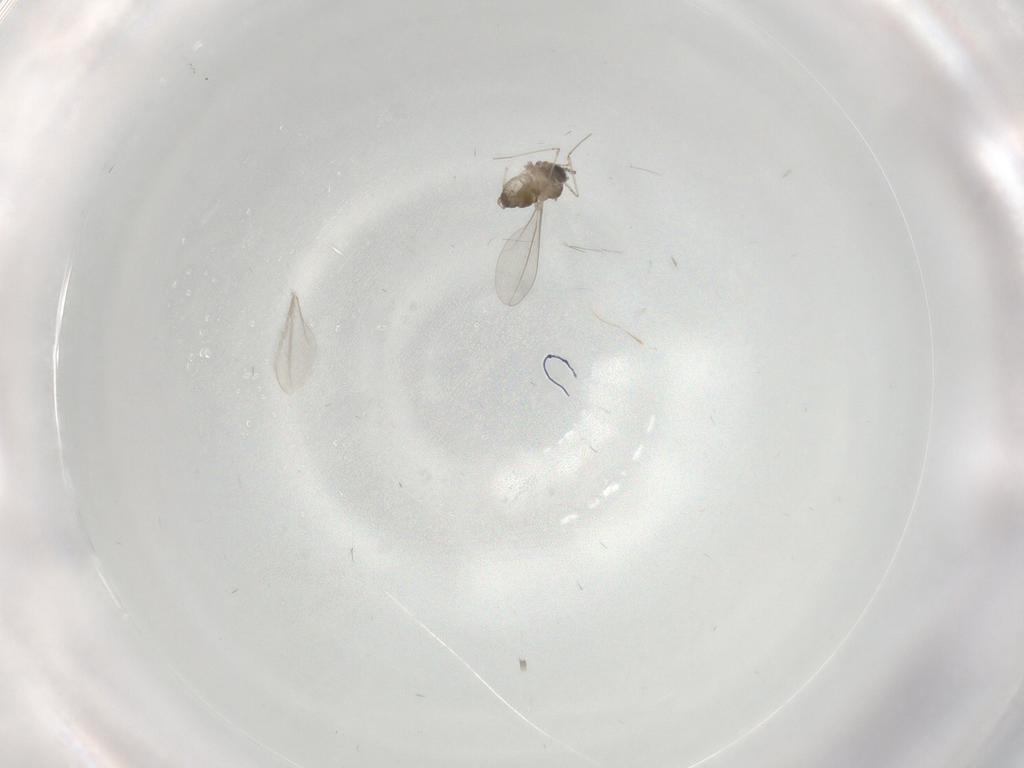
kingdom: Animalia
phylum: Arthropoda
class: Insecta
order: Diptera
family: Cecidomyiidae
